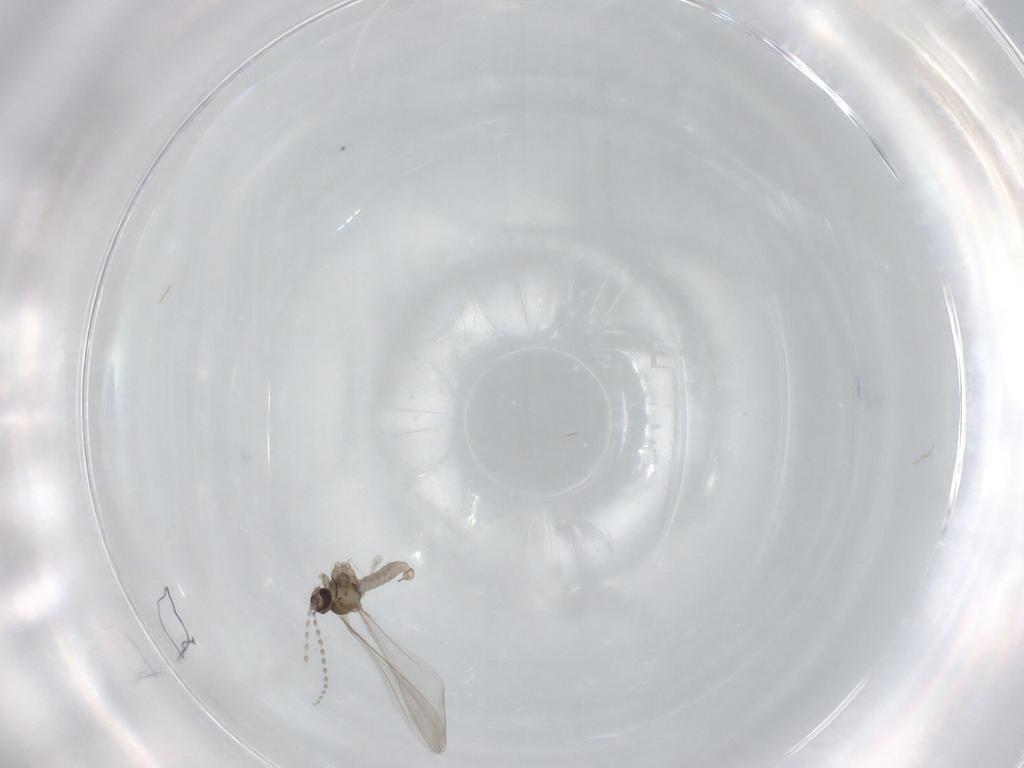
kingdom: Animalia
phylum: Arthropoda
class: Insecta
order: Diptera
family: Cecidomyiidae
